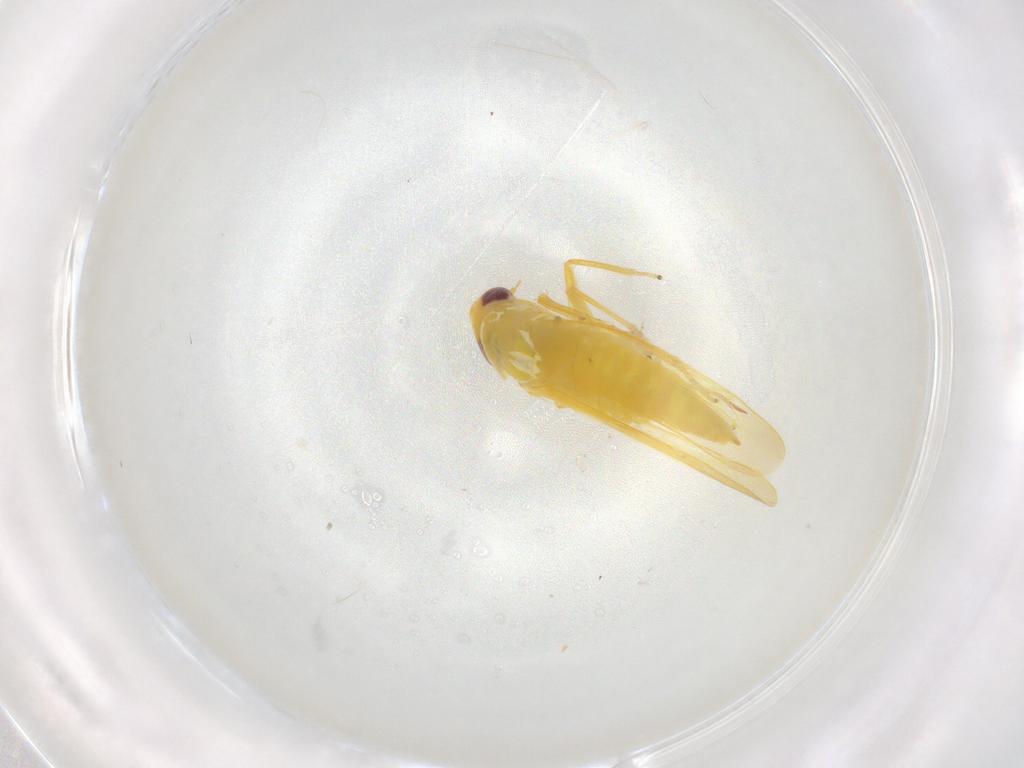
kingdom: Animalia
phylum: Arthropoda
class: Insecta
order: Hemiptera
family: Cicadellidae
